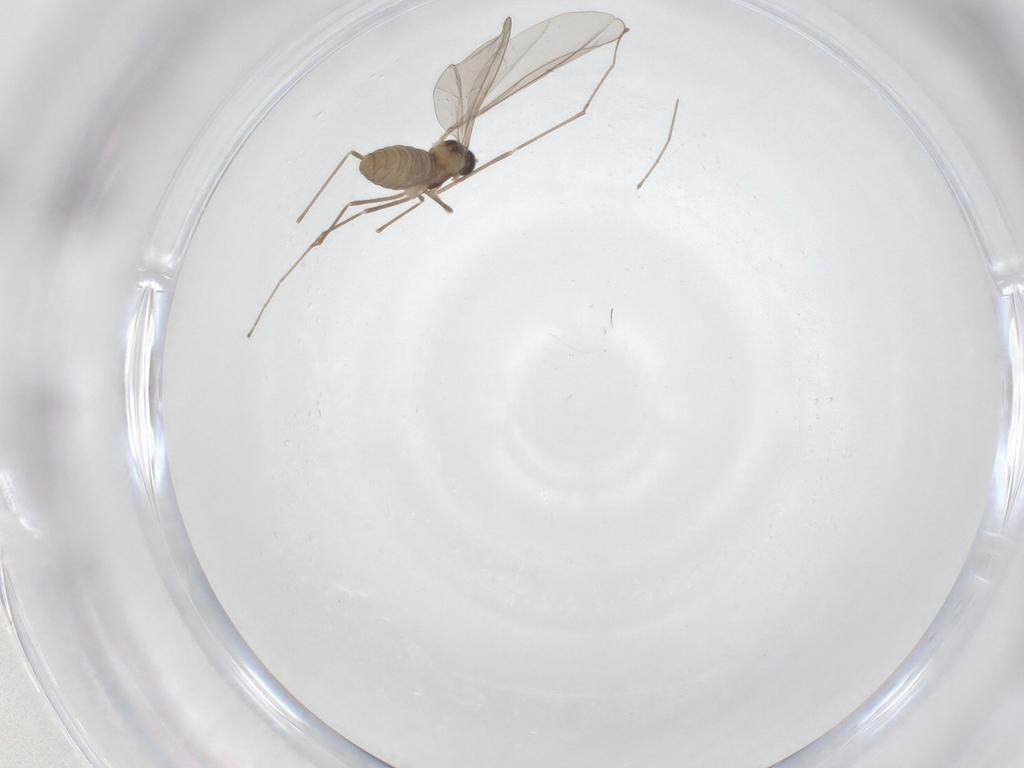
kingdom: Animalia
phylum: Arthropoda
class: Insecta
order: Diptera
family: Cecidomyiidae
